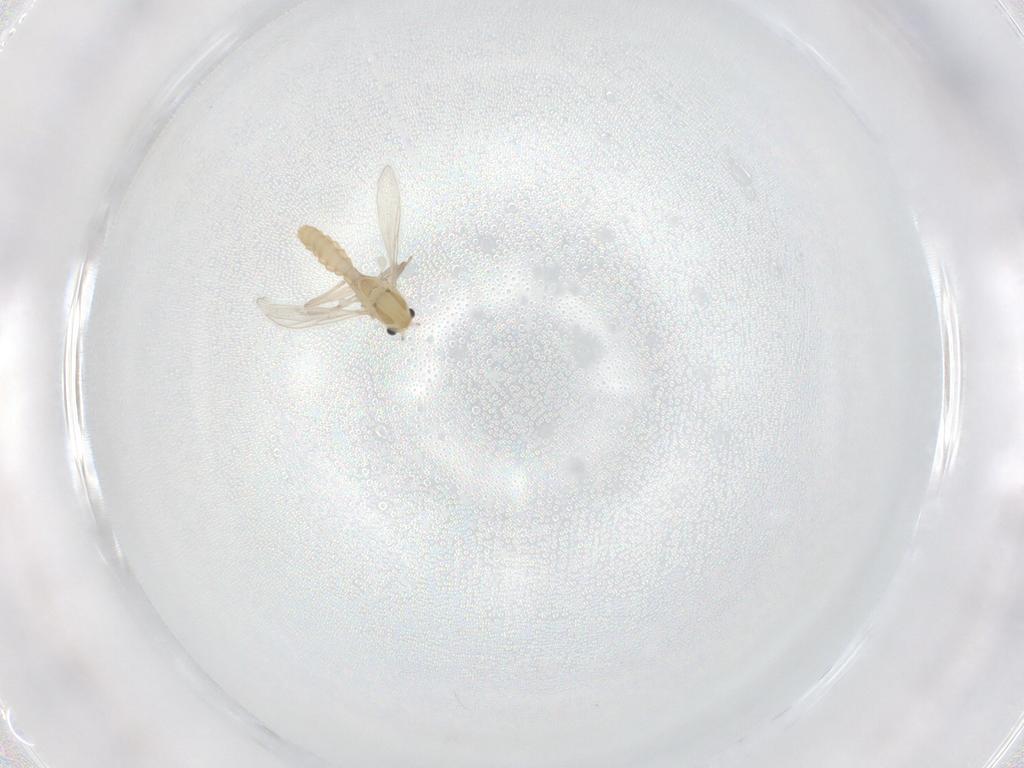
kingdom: Animalia
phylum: Arthropoda
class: Insecta
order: Diptera
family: Chironomidae
